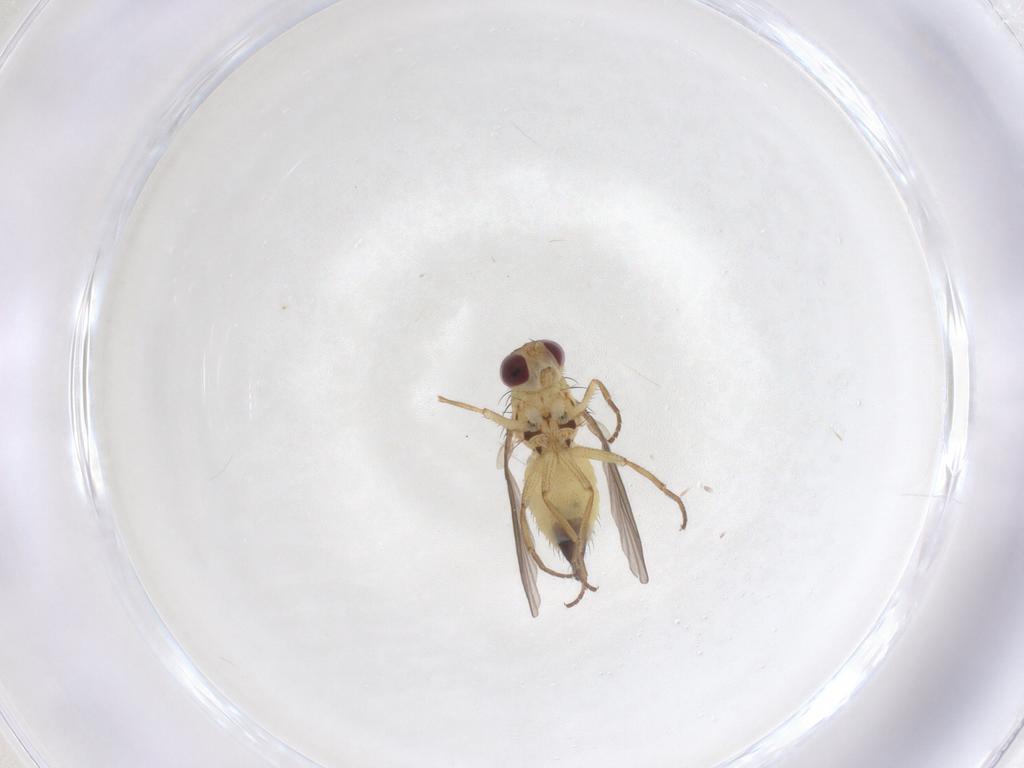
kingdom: Animalia
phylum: Arthropoda
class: Insecta
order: Diptera
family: Agromyzidae
